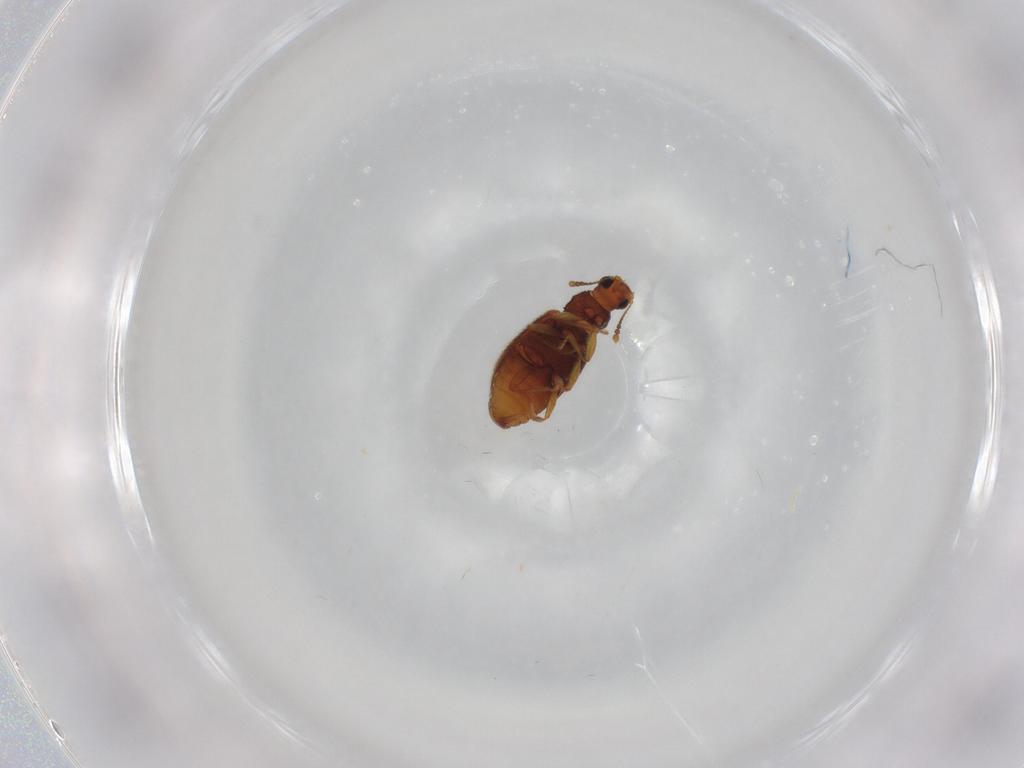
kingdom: Animalia
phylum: Arthropoda
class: Insecta
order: Coleoptera
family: Latridiidae
